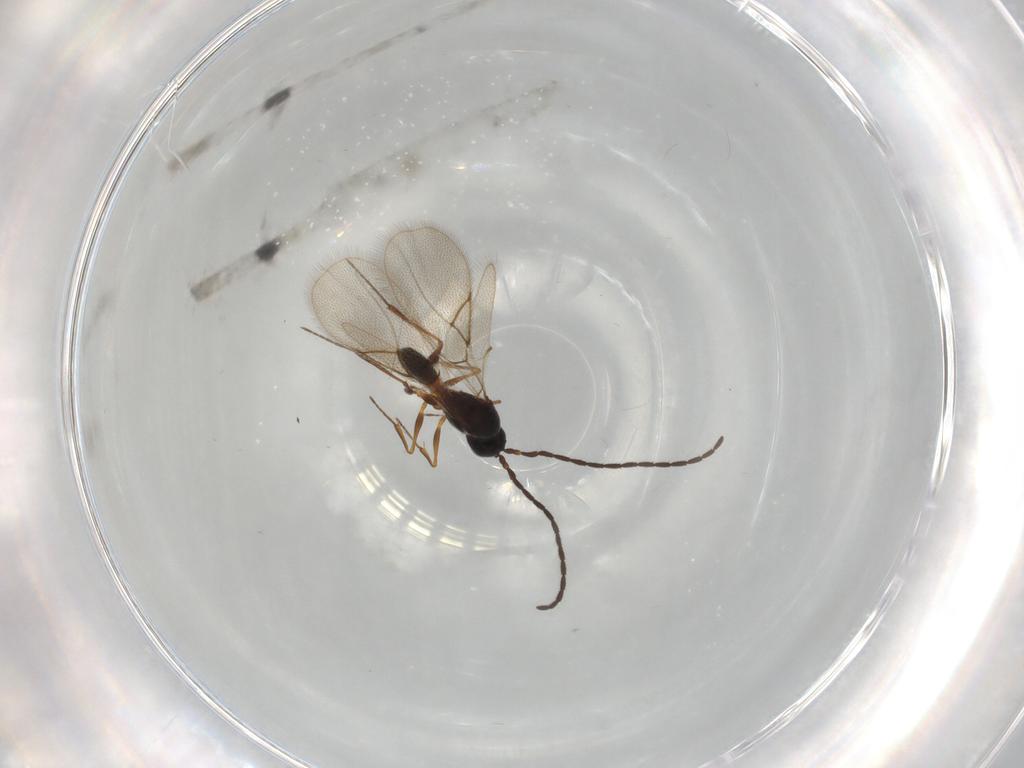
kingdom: Animalia
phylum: Arthropoda
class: Insecta
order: Hymenoptera
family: Figitidae
